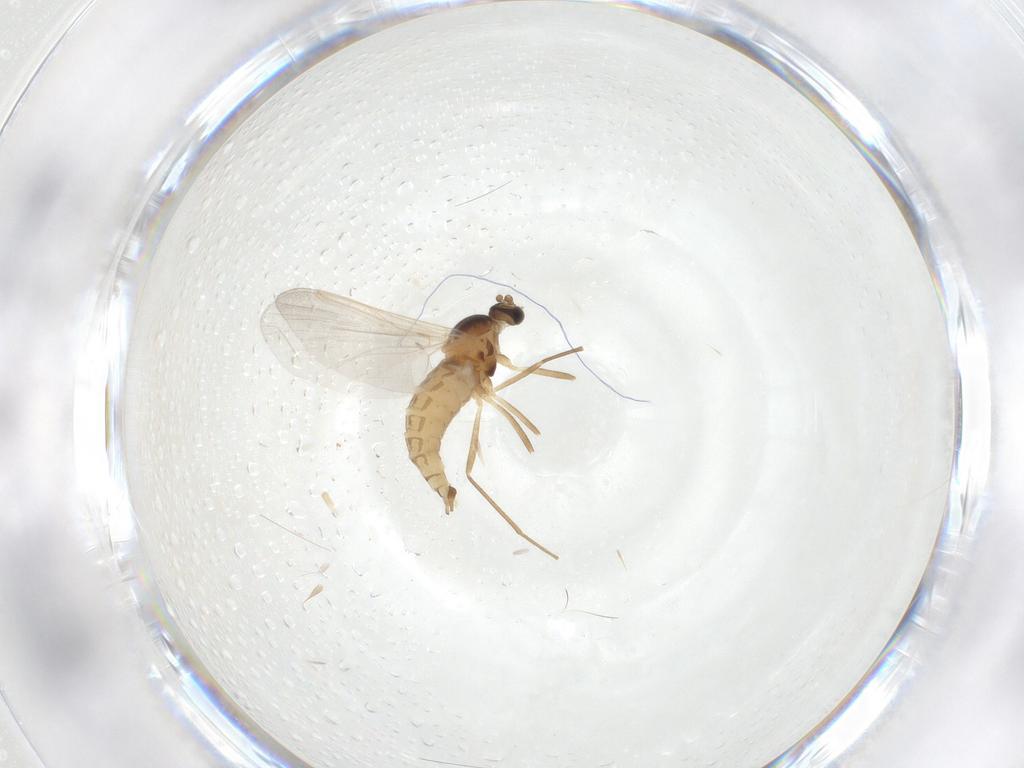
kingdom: Animalia
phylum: Arthropoda
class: Insecta
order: Diptera
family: Cecidomyiidae
